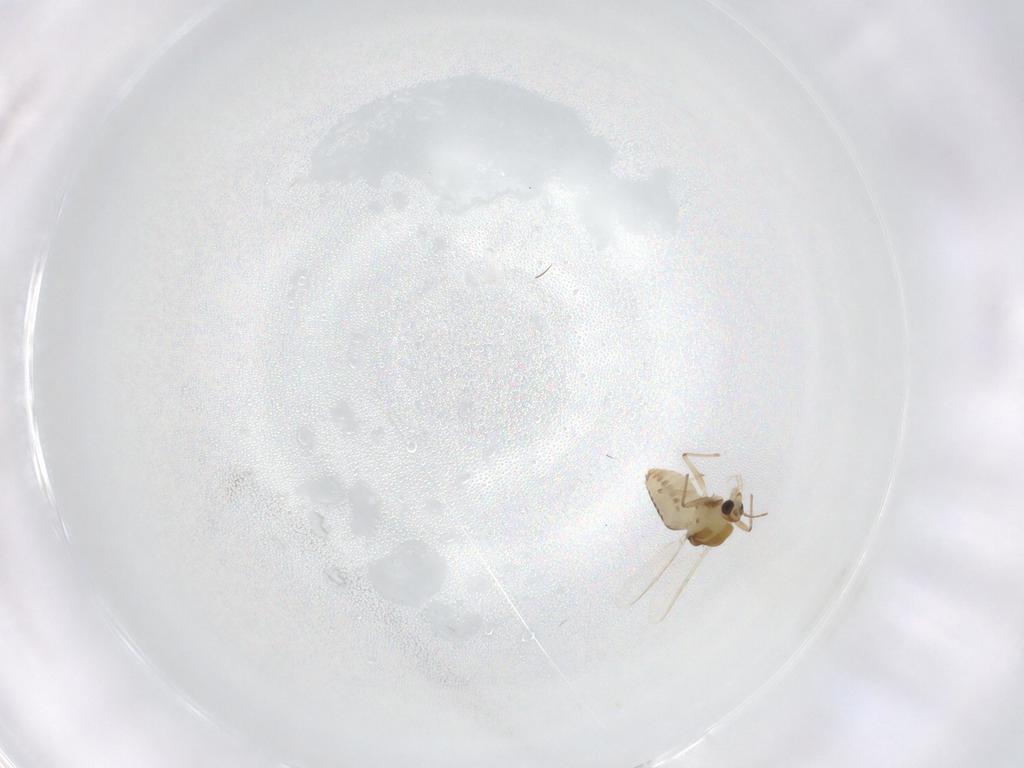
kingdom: Animalia
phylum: Arthropoda
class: Insecta
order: Diptera
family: Chironomidae
